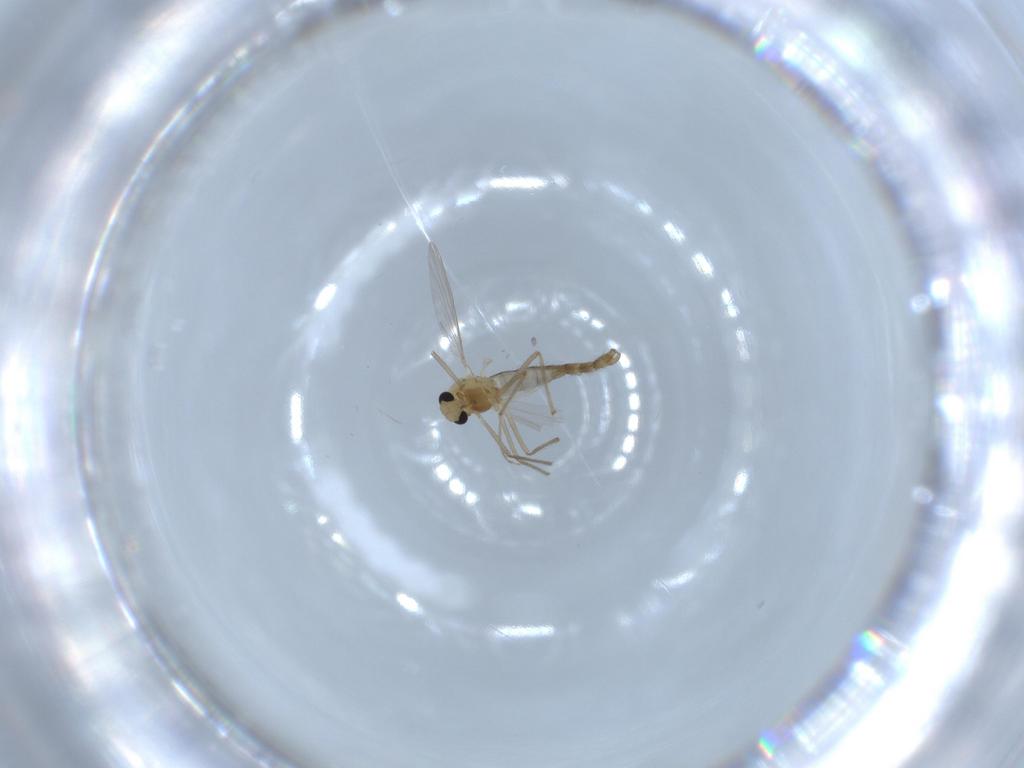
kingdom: Animalia
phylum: Arthropoda
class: Insecta
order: Diptera
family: Chironomidae
